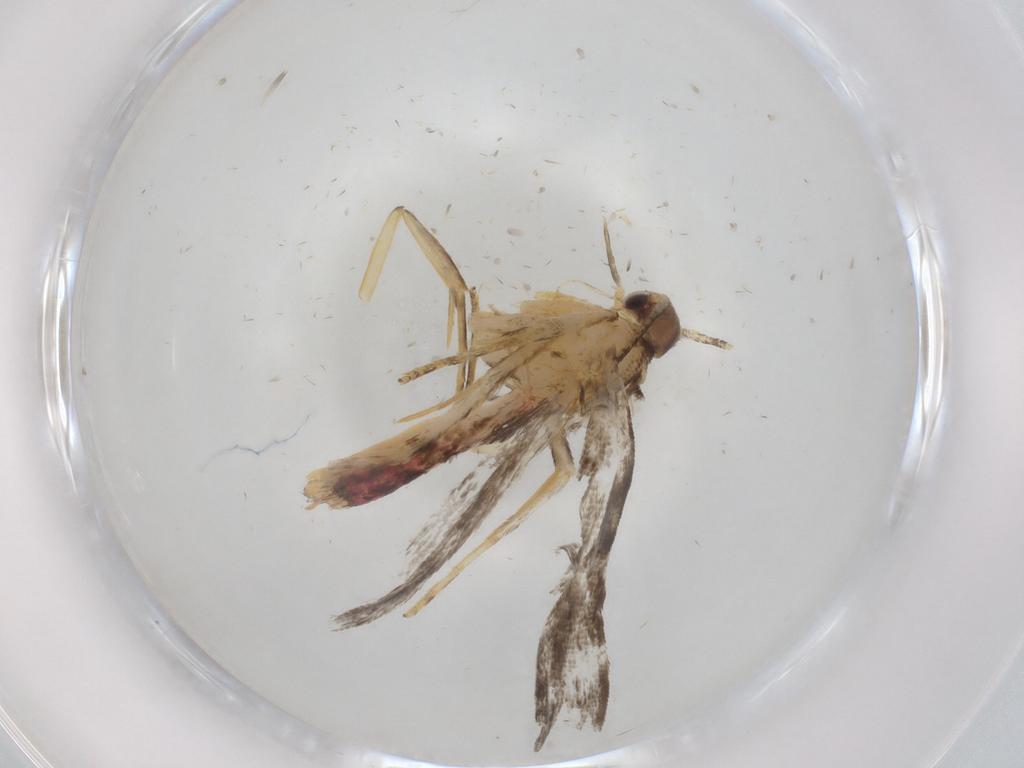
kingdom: Animalia
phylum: Arthropoda
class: Insecta
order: Lepidoptera
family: Gelechiidae
